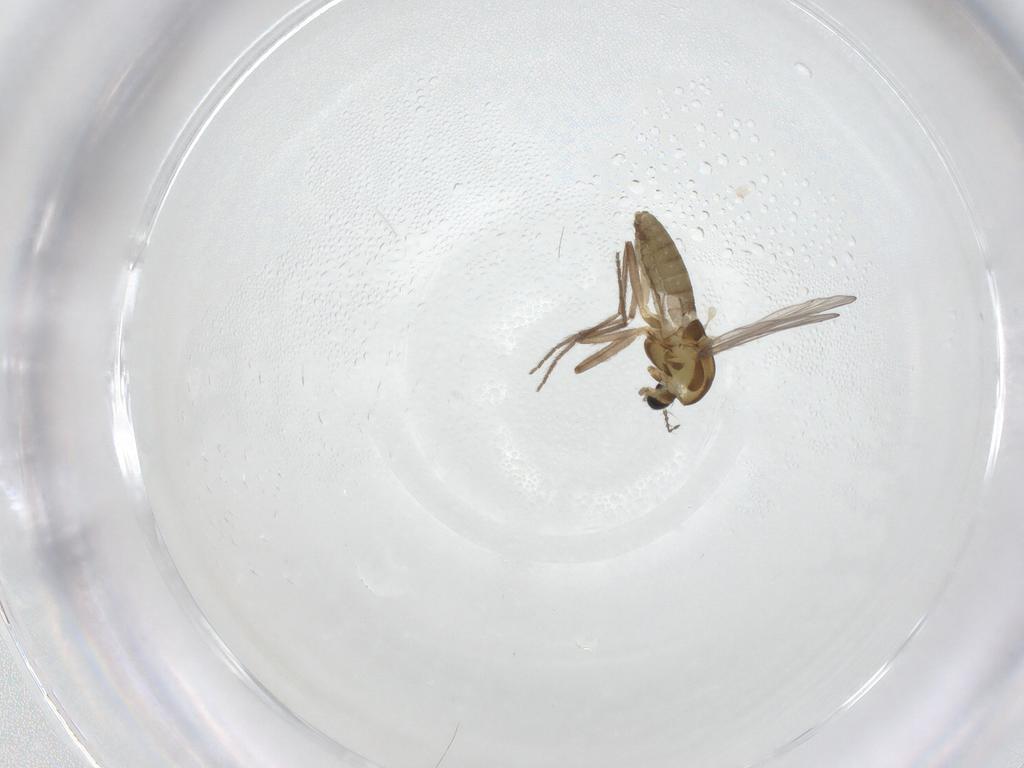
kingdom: Animalia
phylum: Arthropoda
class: Insecta
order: Diptera
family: Chironomidae
